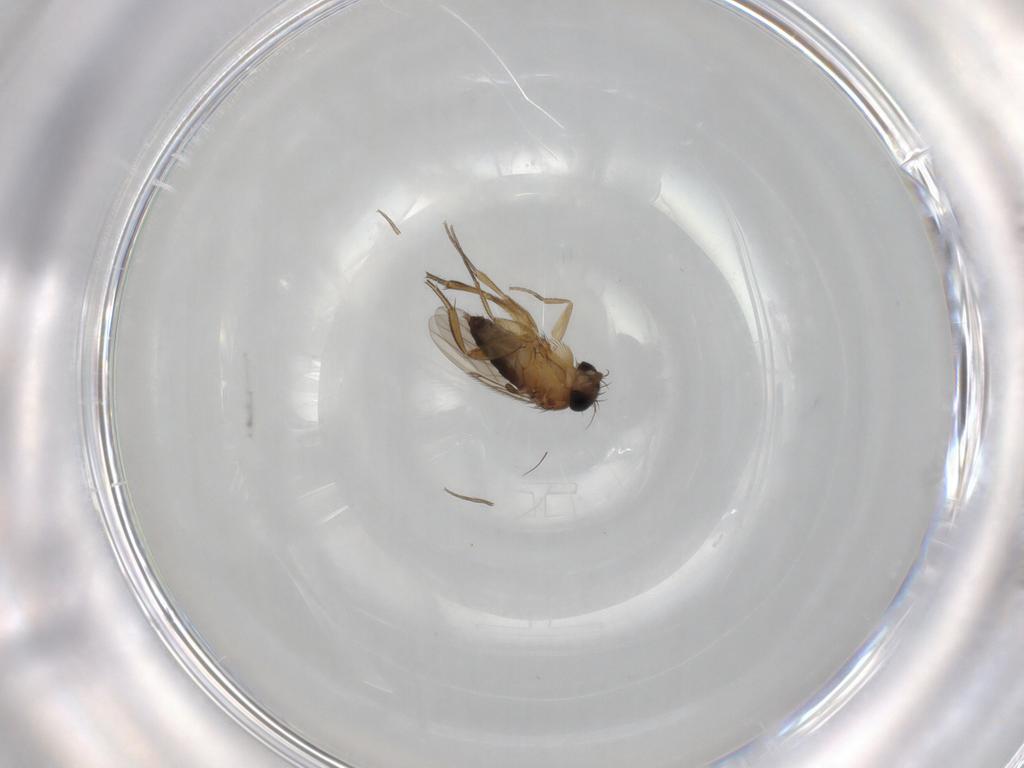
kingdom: Animalia
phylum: Arthropoda
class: Insecta
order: Diptera
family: Phoridae
